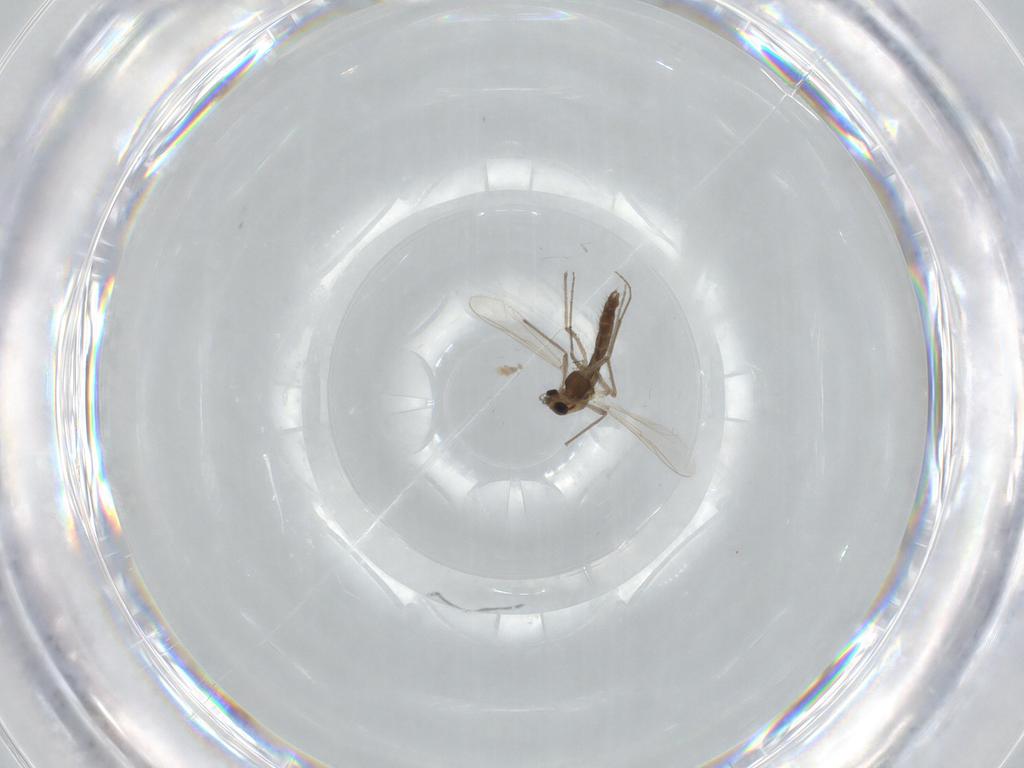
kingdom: Animalia
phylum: Arthropoda
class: Insecta
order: Diptera
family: Chironomidae
